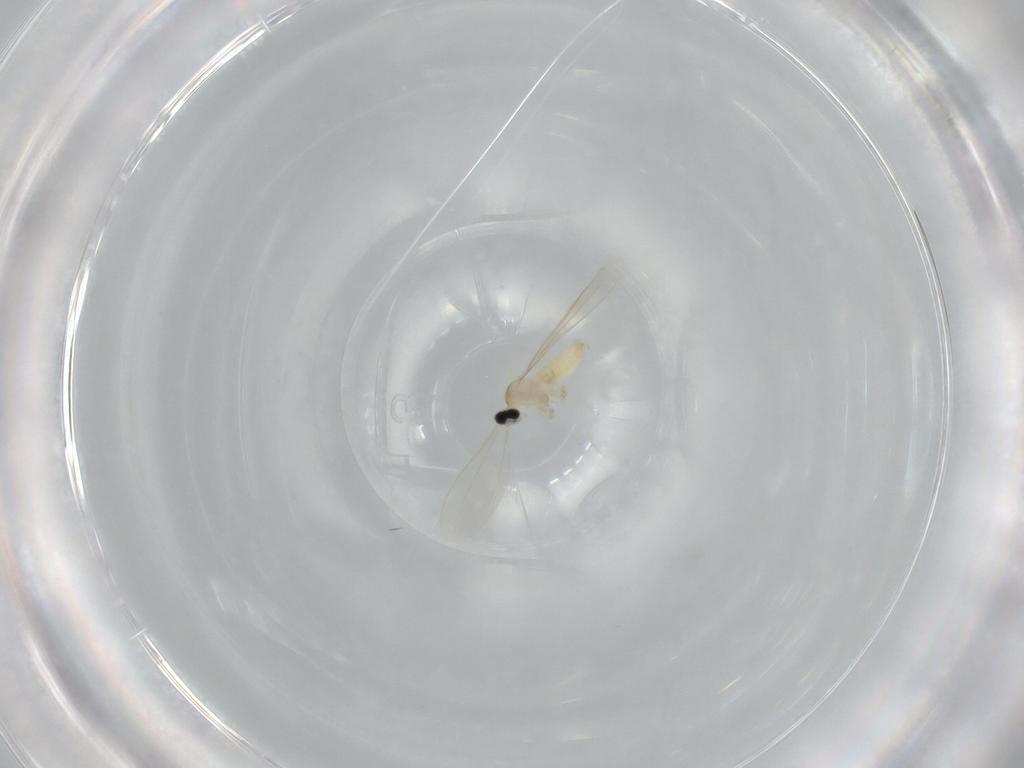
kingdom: Animalia
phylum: Arthropoda
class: Insecta
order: Diptera
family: Cecidomyiidae
